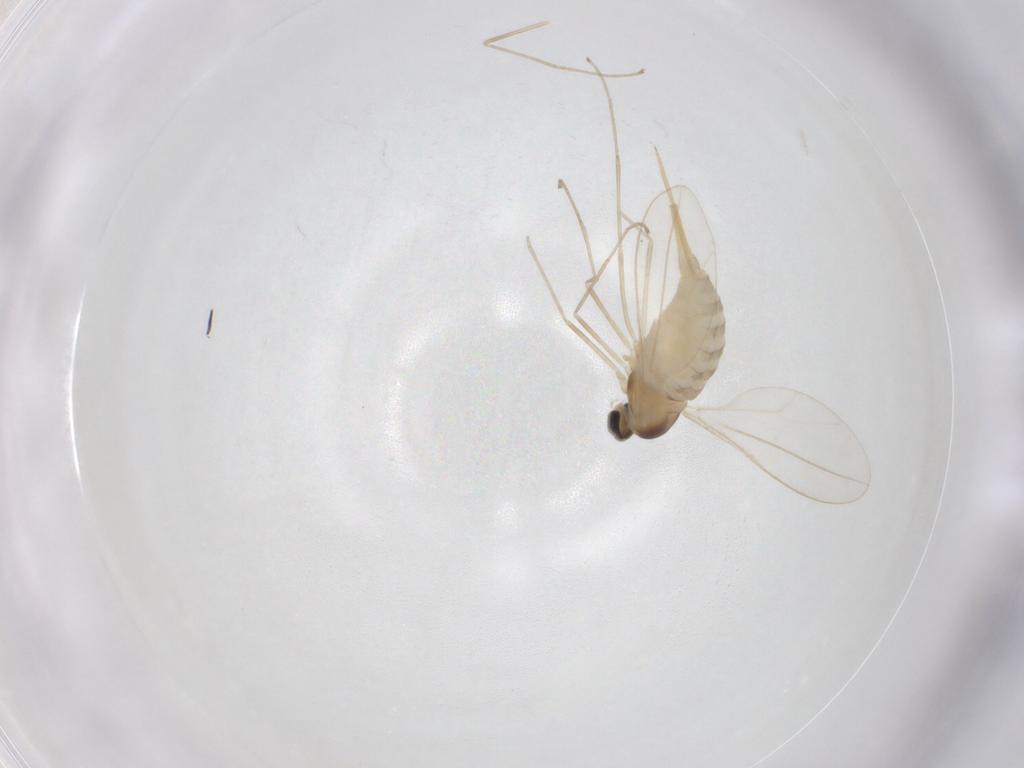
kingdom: Animalia
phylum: Arthropoda
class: Insecta
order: Diptera
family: Cecidomyiidae
